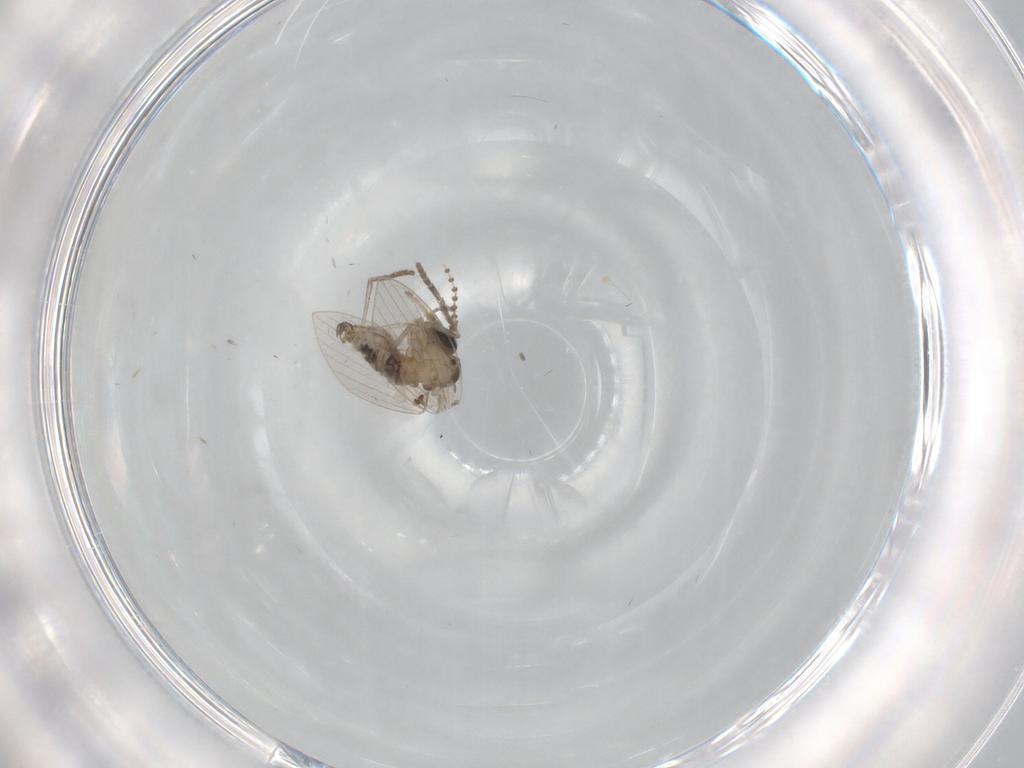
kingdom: Animalia
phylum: Arthropoda
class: Insecta
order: Diptera
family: Psychodidae
